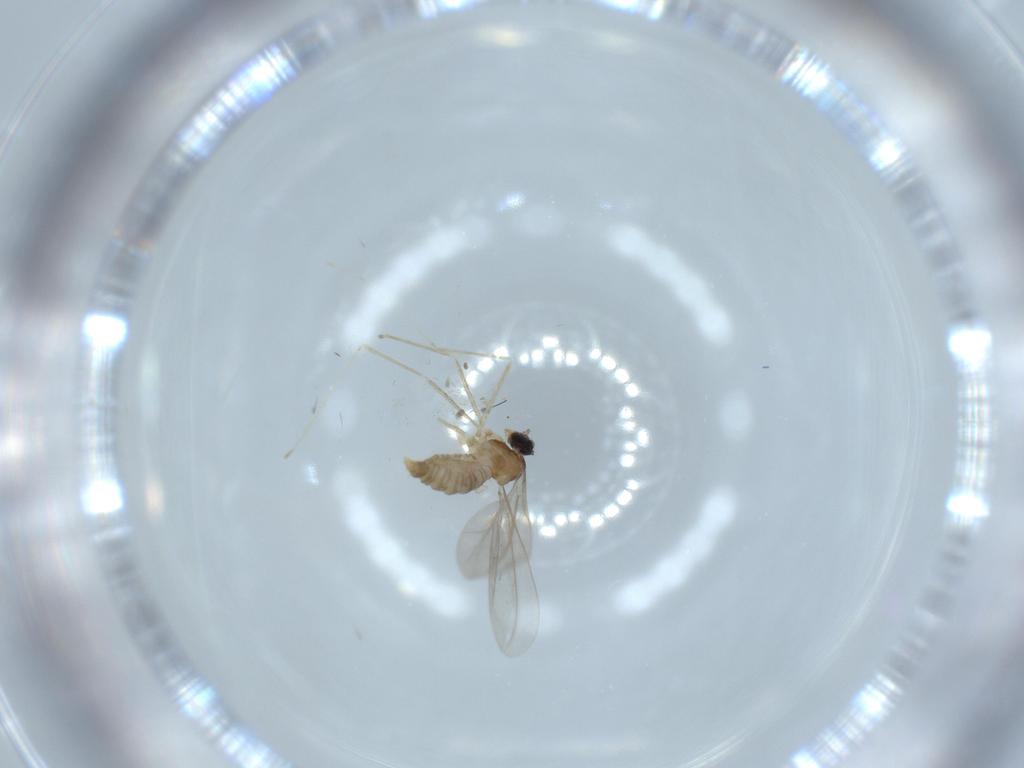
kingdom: Animalia
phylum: Arthropoda
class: Insecta
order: Diptera
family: Cecidomyiidae
